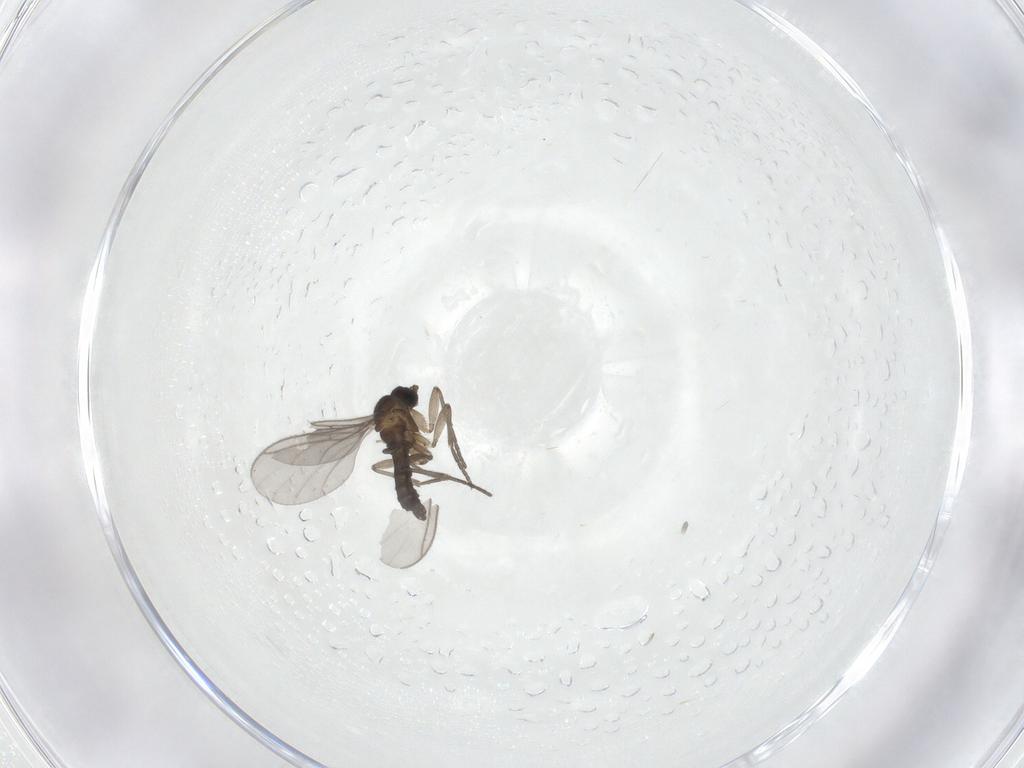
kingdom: Animalia
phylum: Arthropoda
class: Insecta
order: Diptera
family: Cecidomyiidae
